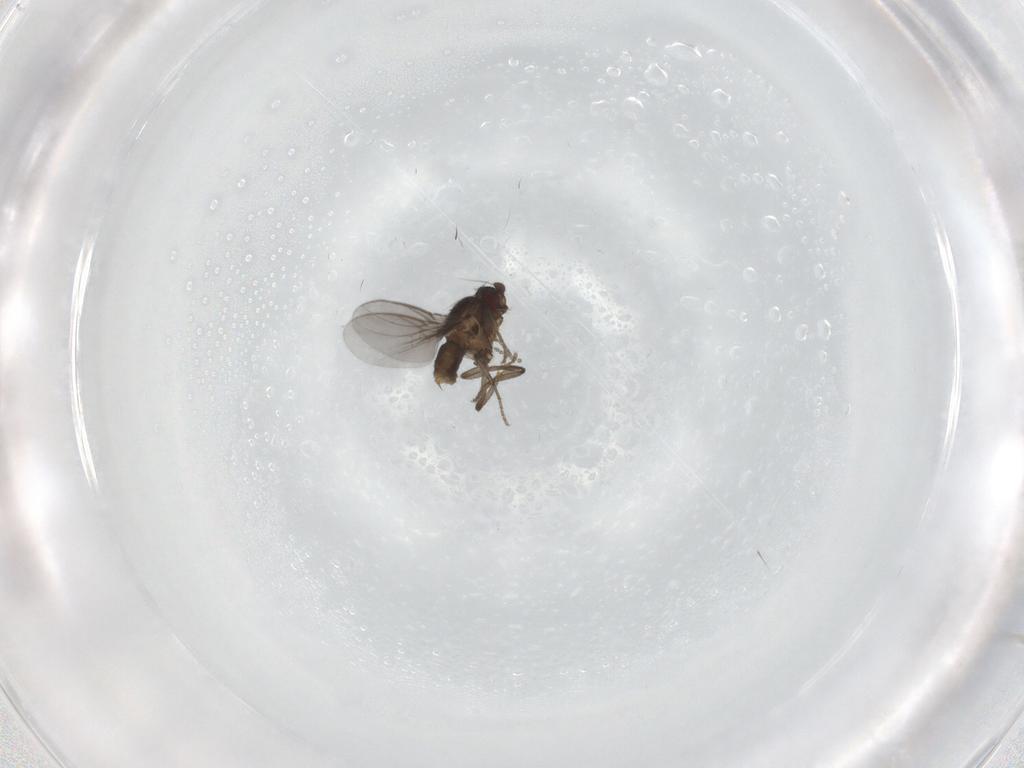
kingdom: Animalia
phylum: Arthropoda
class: Insecta
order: Diptera
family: Sphaeroceridae
